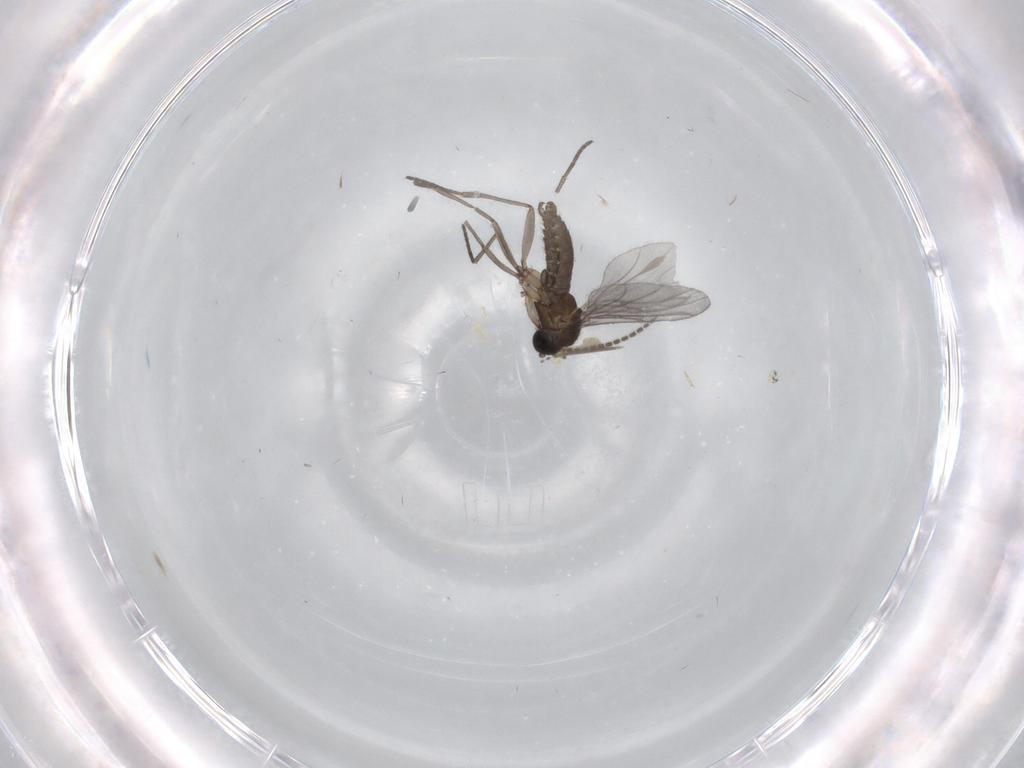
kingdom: Animalia
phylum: Arthropoda
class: Insecta
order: Diptera
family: Cecidomyiidae
